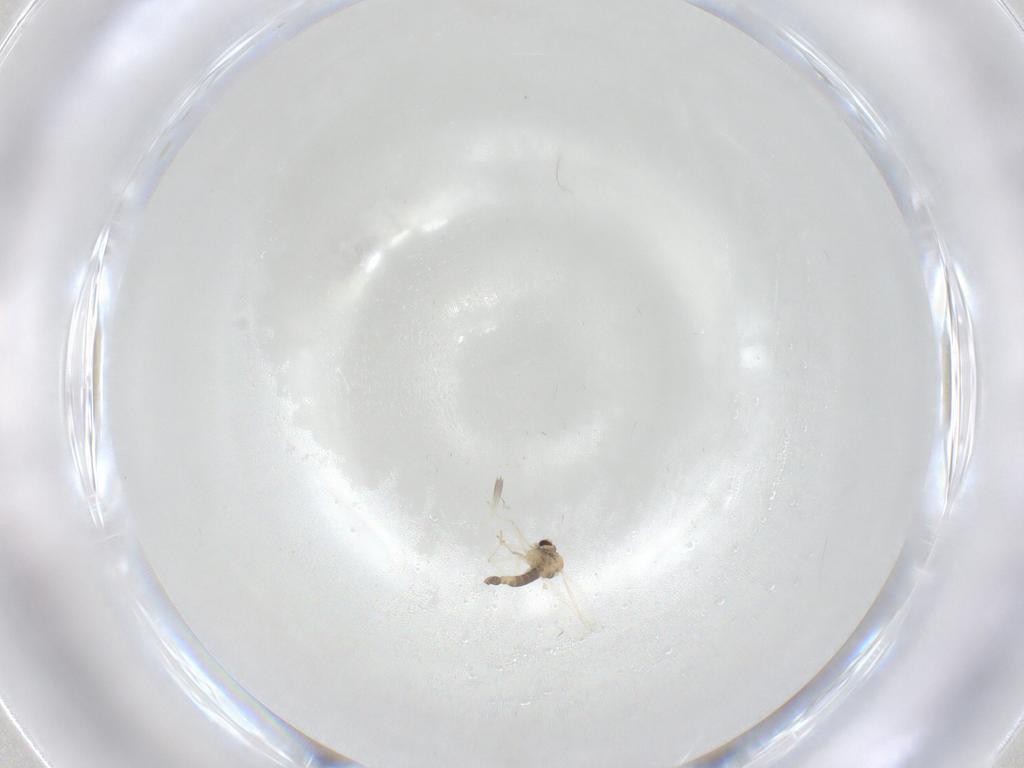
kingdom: Animalia
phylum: Arthropoda
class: Insecta
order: Diptera
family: Chironomidae
